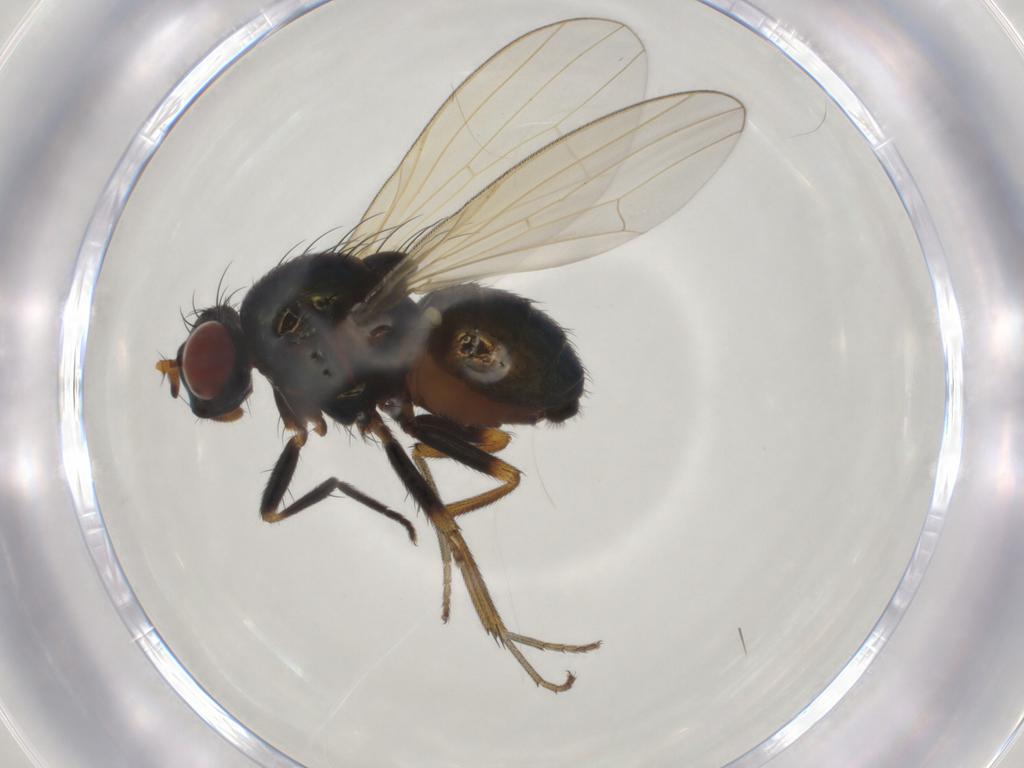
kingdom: Animalia
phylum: Arthropoda
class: Insecta
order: Diptera
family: Lauxaniidae
